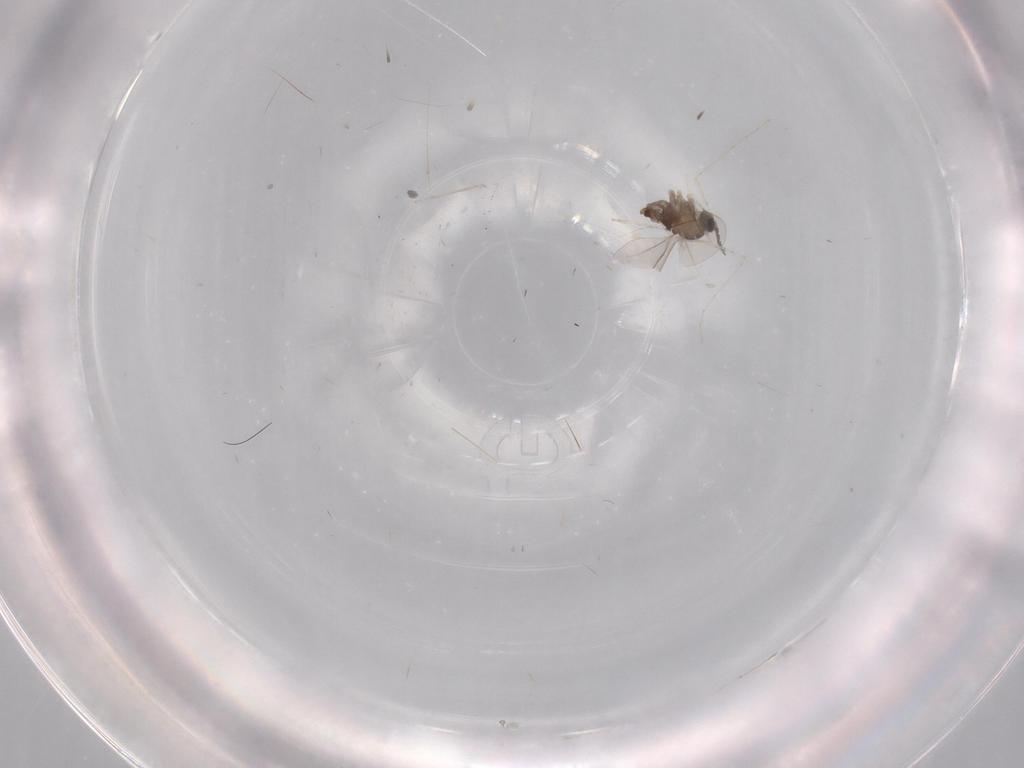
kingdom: Animalia
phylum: Arthropoda
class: Insecta
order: Diptera
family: Cecidomyiidae
